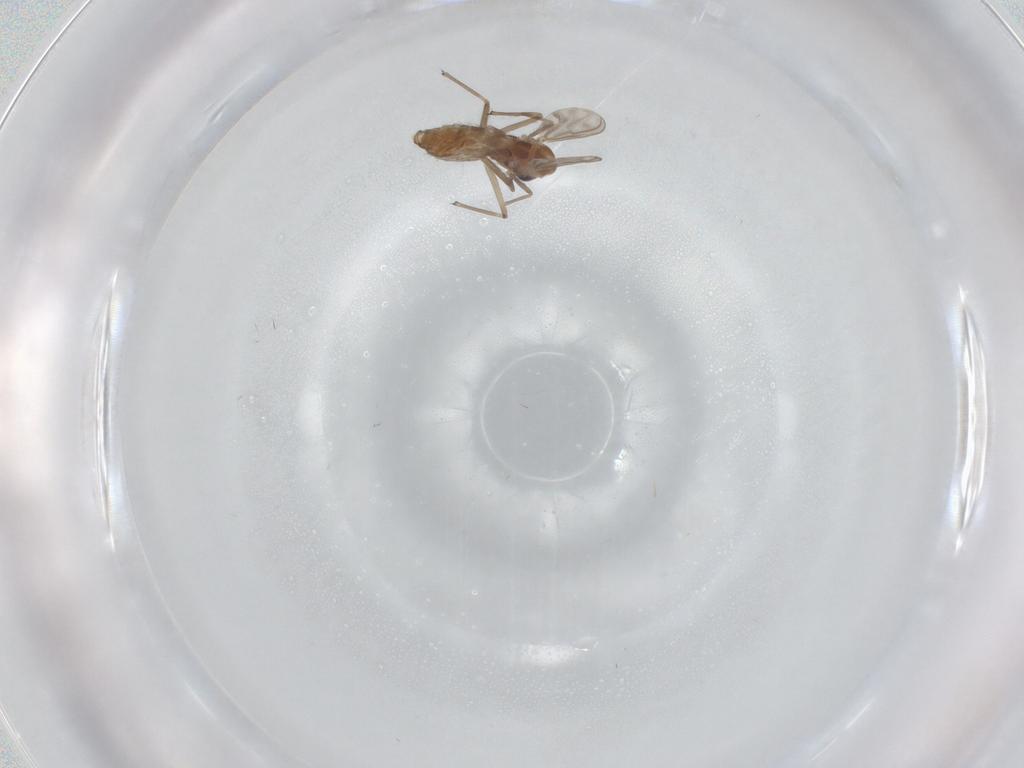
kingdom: Animalia
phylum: Arthropoda
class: Insecta
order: Diptera
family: Chironomidae
